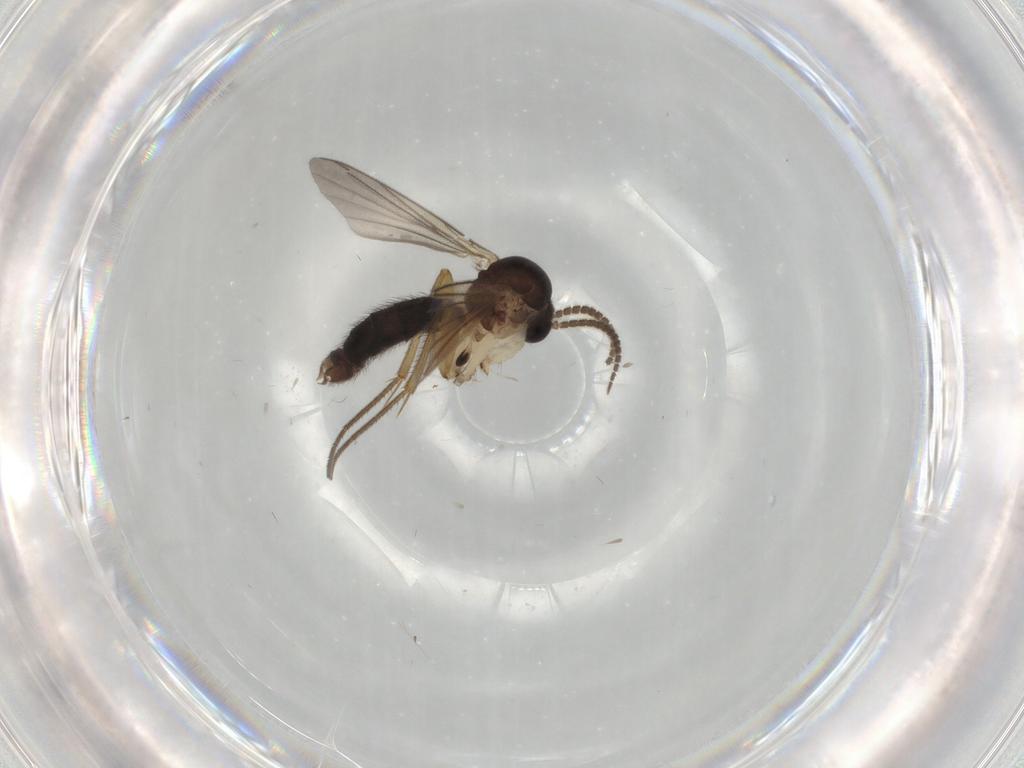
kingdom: Animalia
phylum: Arthropoda
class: Insecta
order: Diptera
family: Mycetophilidae
